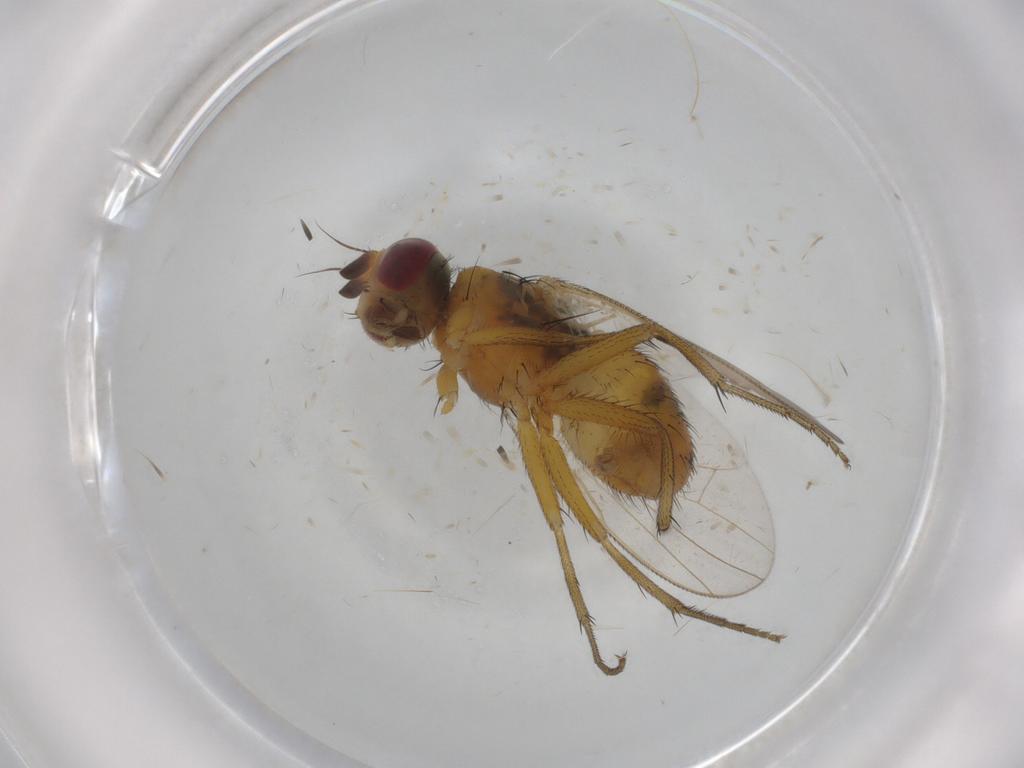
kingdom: Animalia
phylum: Arthropoda
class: Insecta
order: Diptera
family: Muscidae
